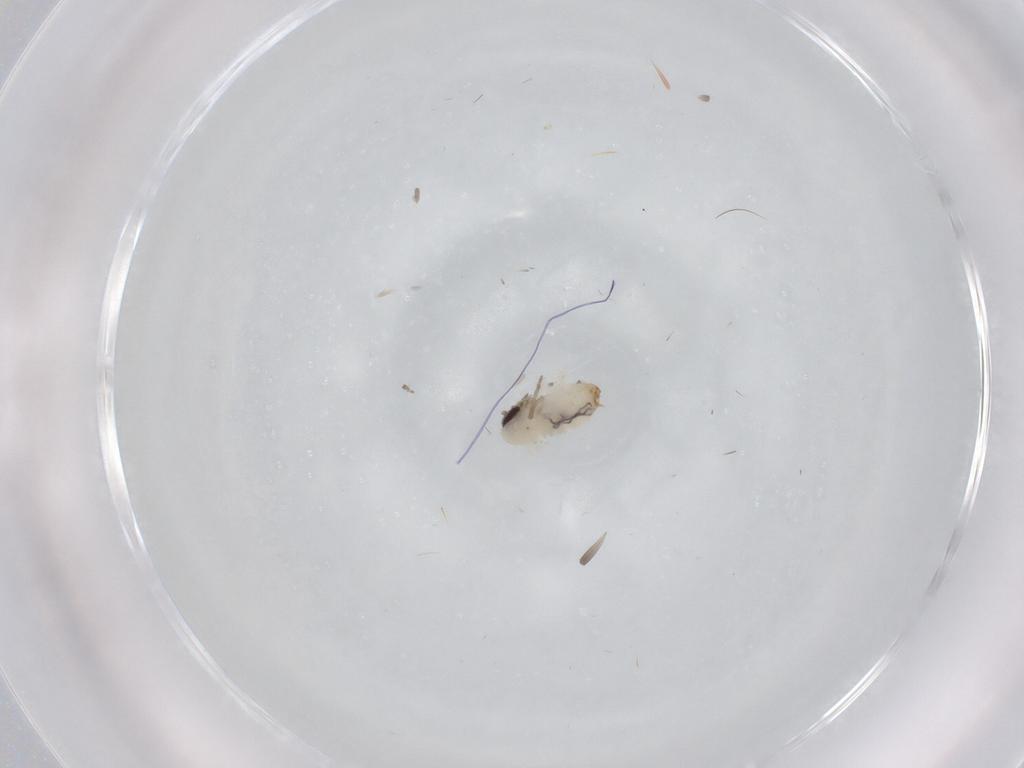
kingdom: Animalia
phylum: Arthropoda
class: Insecta
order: Diptera
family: Psychodidae
